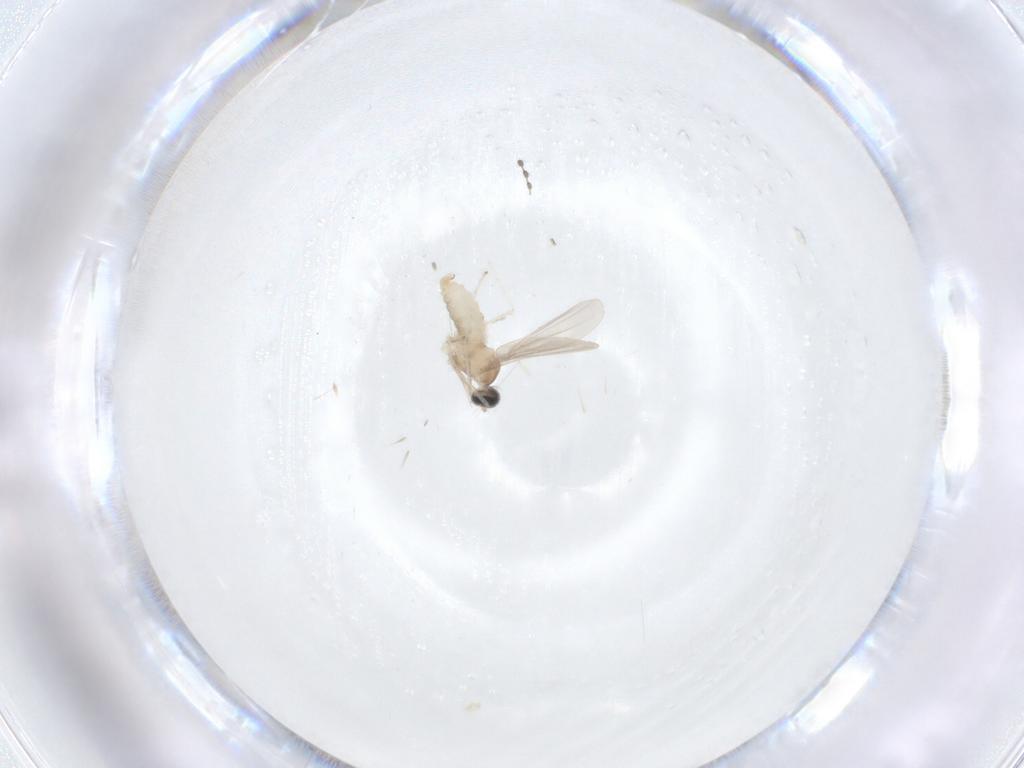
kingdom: Animalia
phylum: Arthropoda
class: Insecta
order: Diptera
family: Cecidomyiidae
